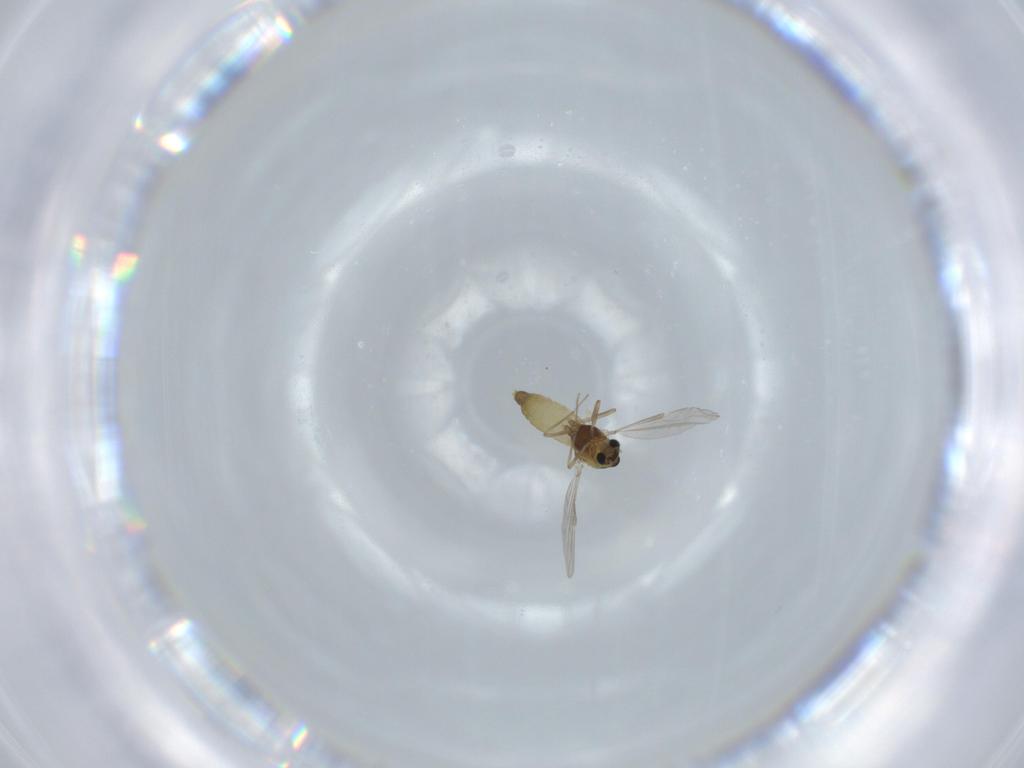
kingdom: Animalia
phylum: Arthropoda
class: Insecta
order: Diptera
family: Chironomidae
